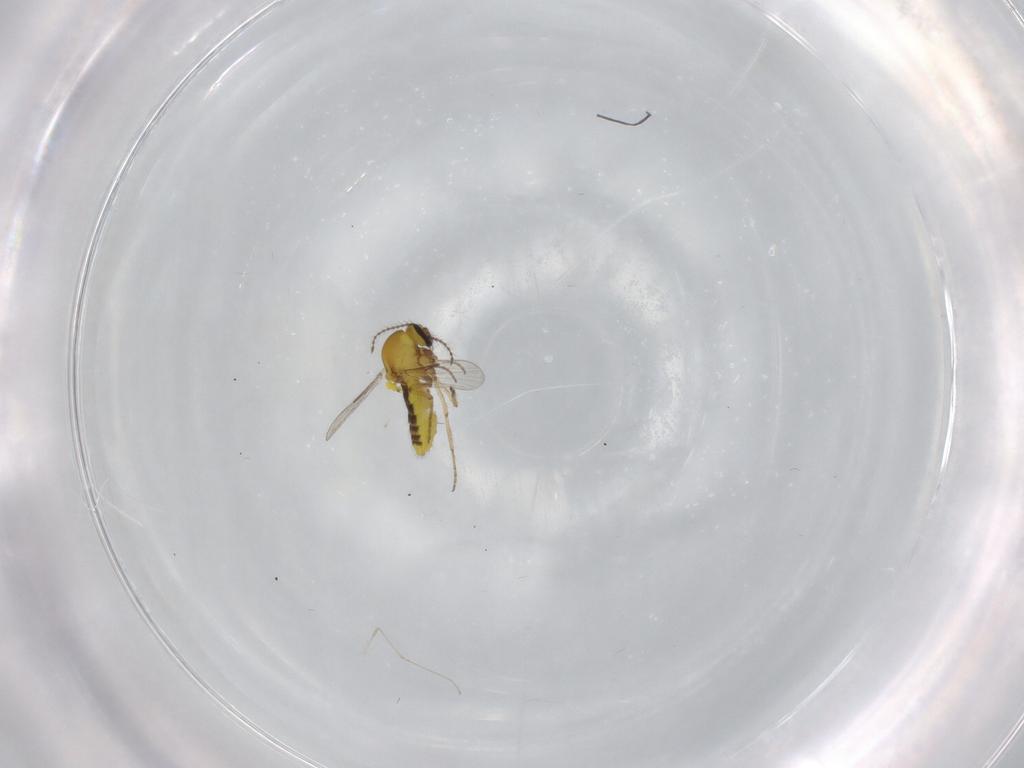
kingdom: Animalia
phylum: Arthropoda
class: Insecta
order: Diptera
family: Ceratopogonidae
